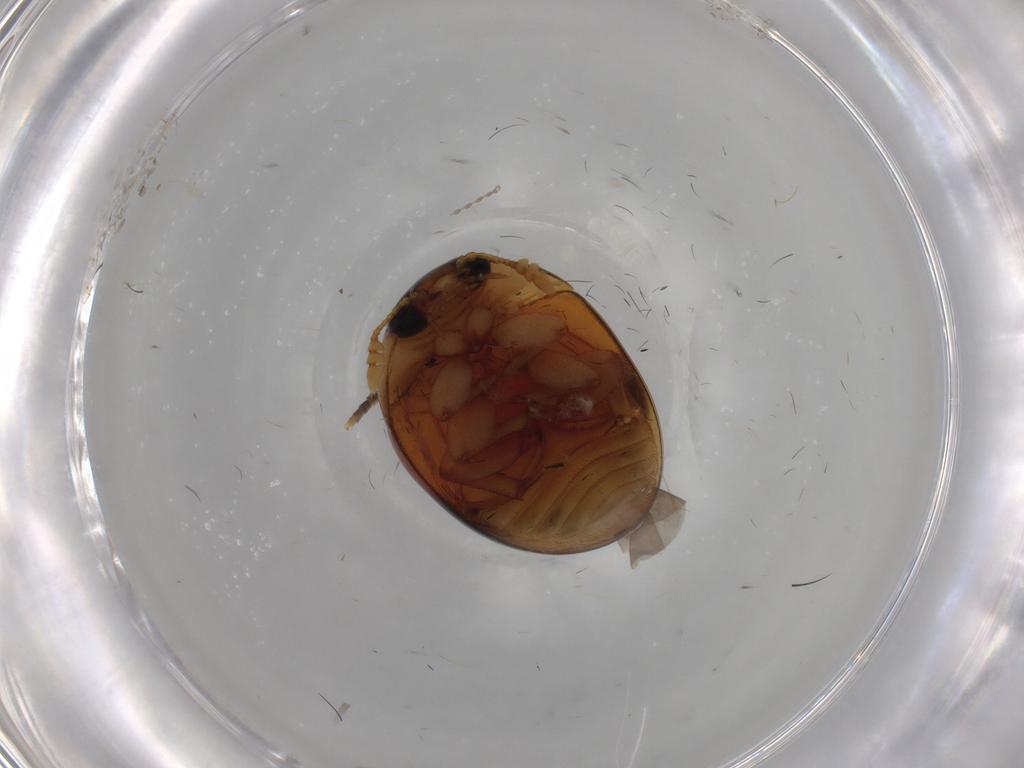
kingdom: Animalia
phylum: Arthropoda
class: Insecta
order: Coleoptera
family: Phalacridae
